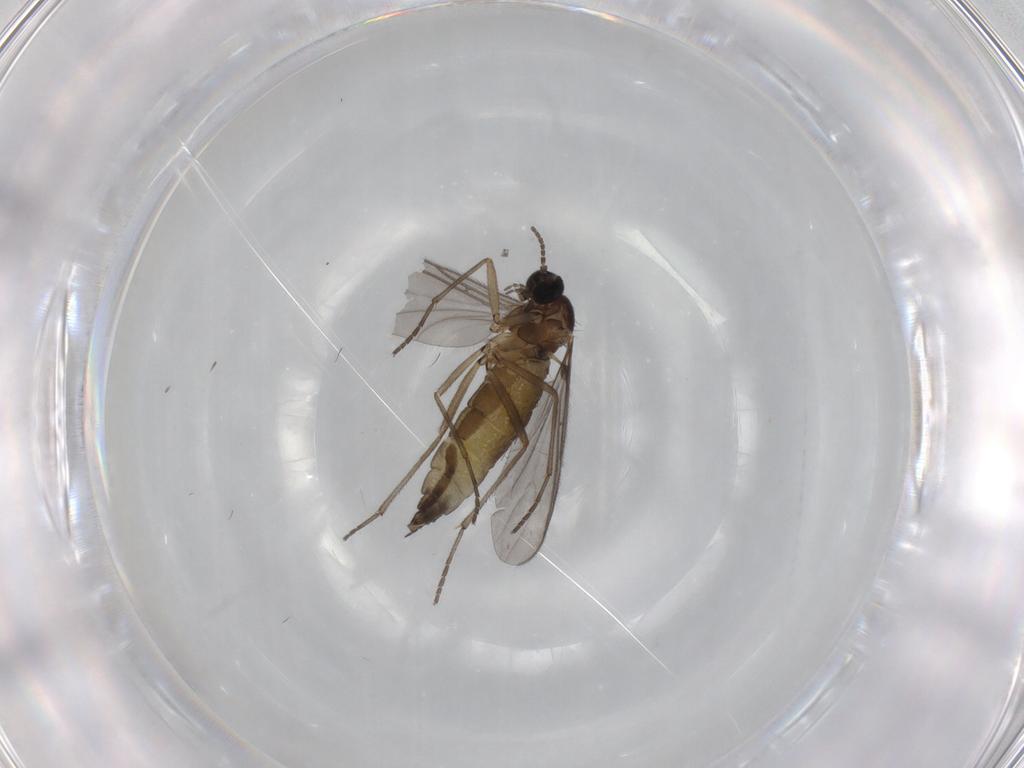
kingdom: Animalia
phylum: Arthropoda
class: Insecta
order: Diptera
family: Sciaridae
